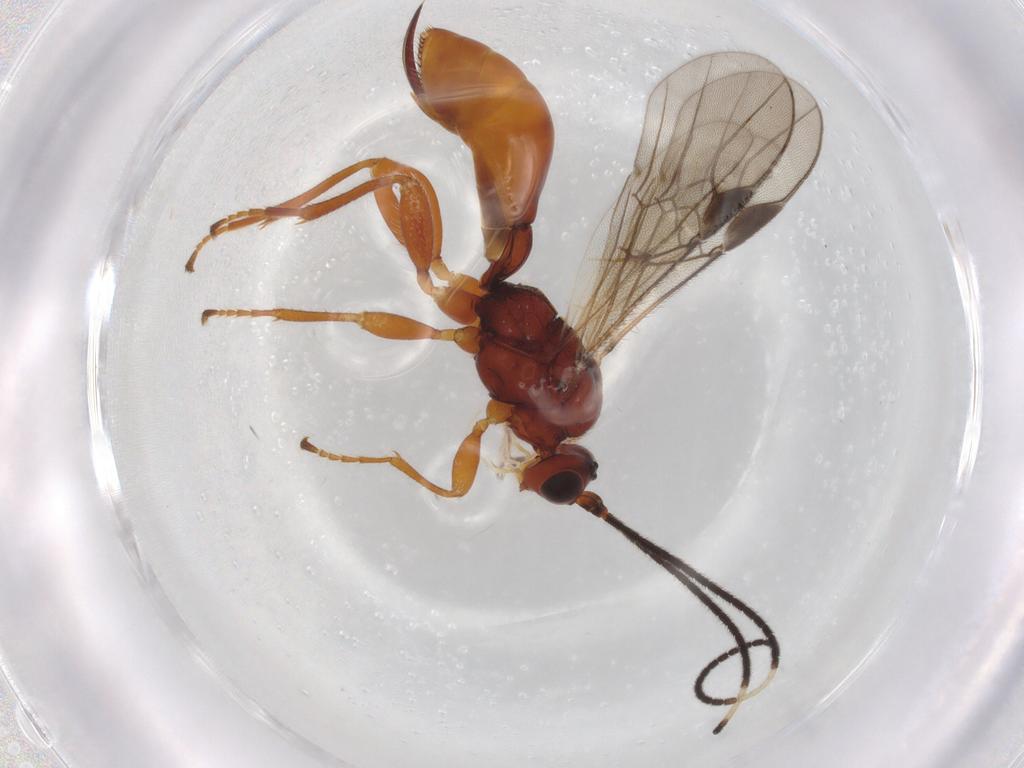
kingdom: Animalia
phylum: Arthropoda
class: Insecta
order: Hymenoptera
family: Braconidae
